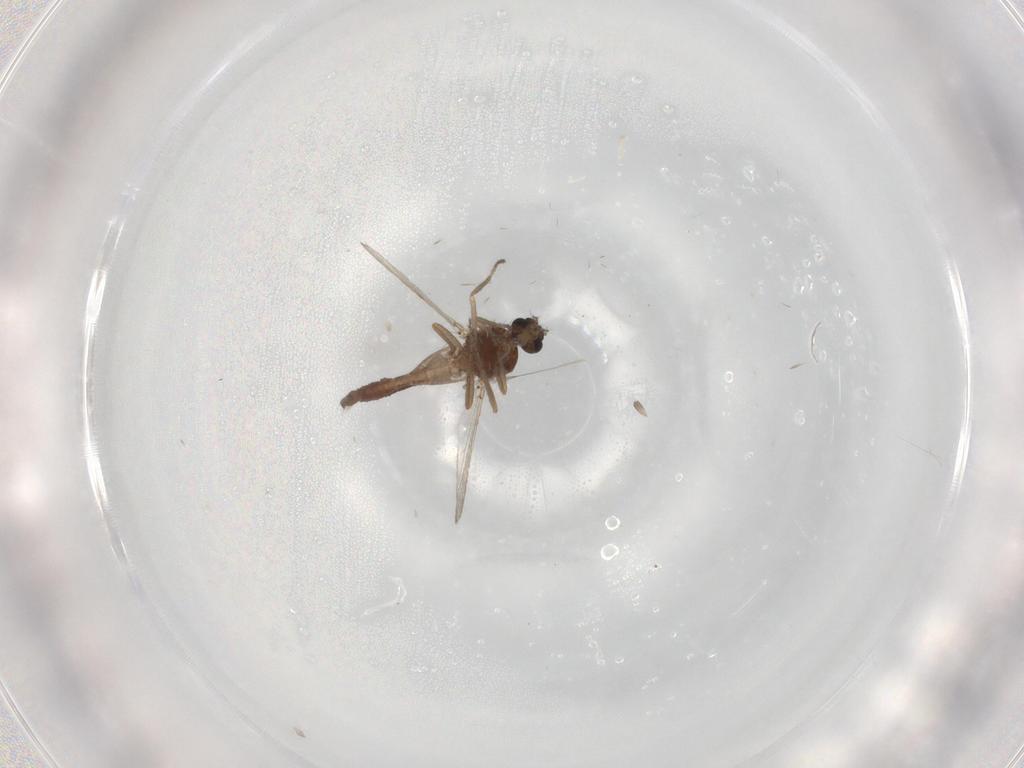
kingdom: Animalia
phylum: Arthropoda
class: Insecta
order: Diptera
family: Ceratopogonidae
